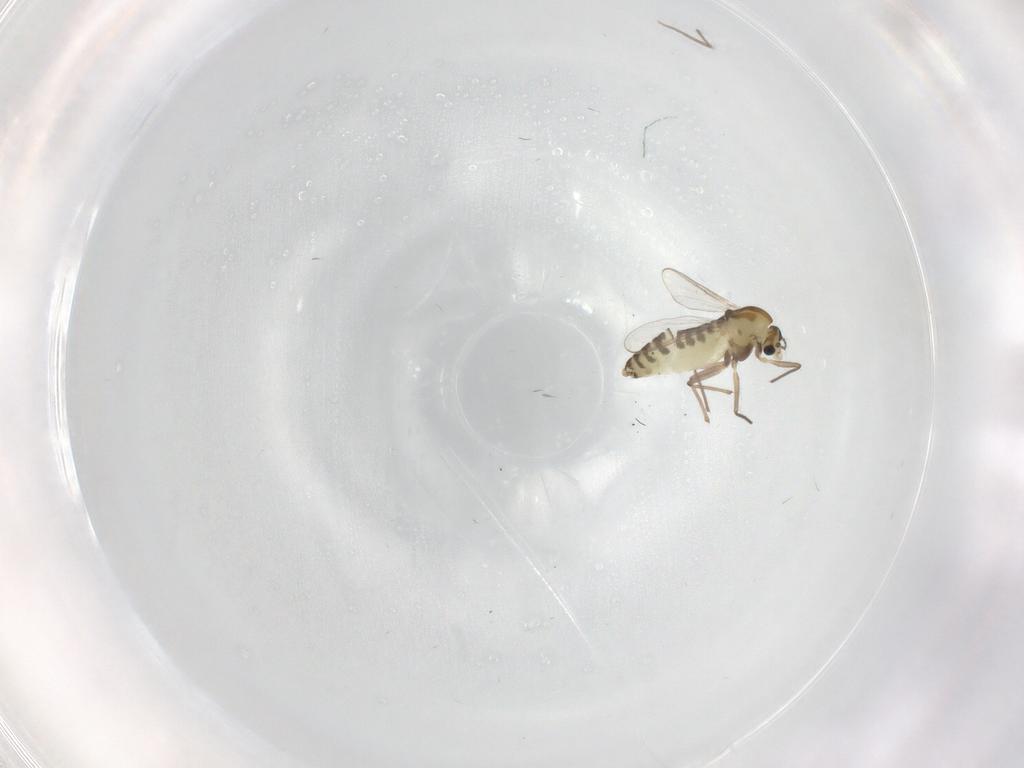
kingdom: Animalia
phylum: Arthropoda
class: Insecta
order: Diptera
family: Chironomidae
